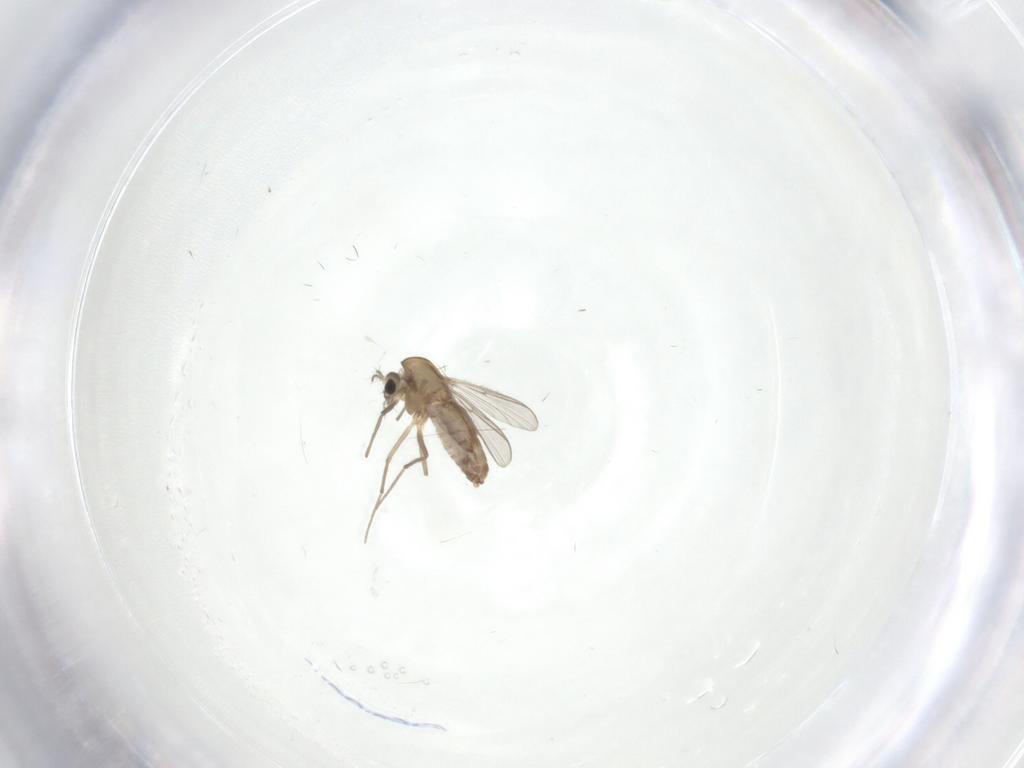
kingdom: Animalia
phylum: Arthropoda
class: Insecta
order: Diptera
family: Chironomidae
